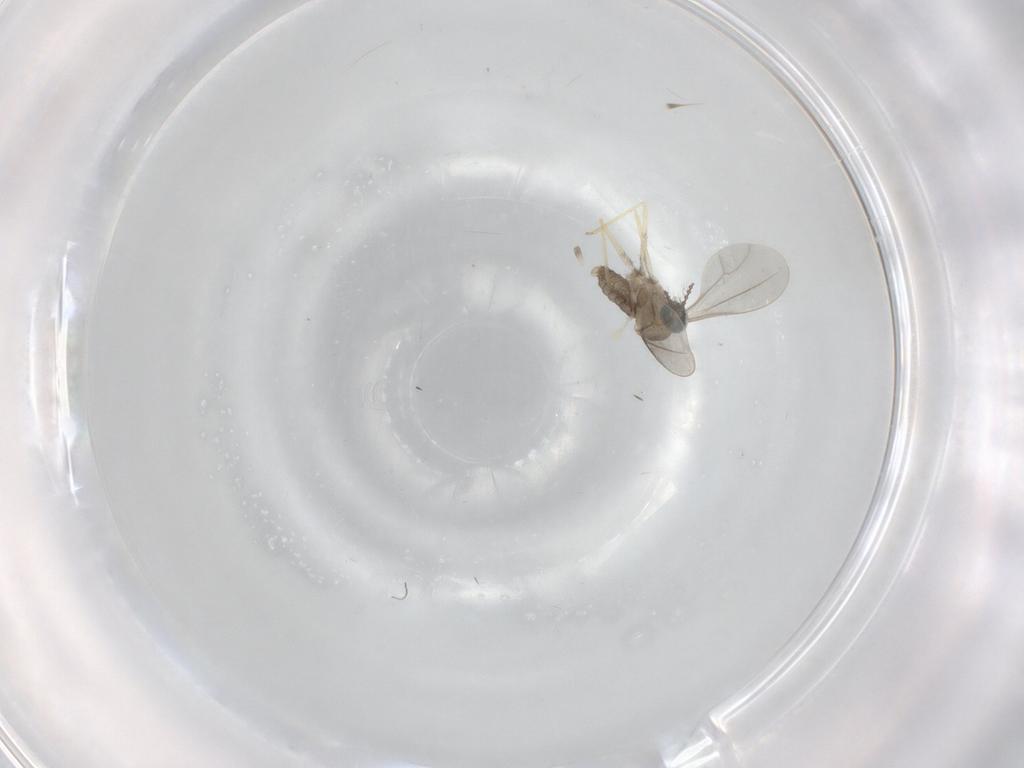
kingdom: Animalia
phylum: Arthropoda
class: Insecta
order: Diptera
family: Cecidomyiidae
